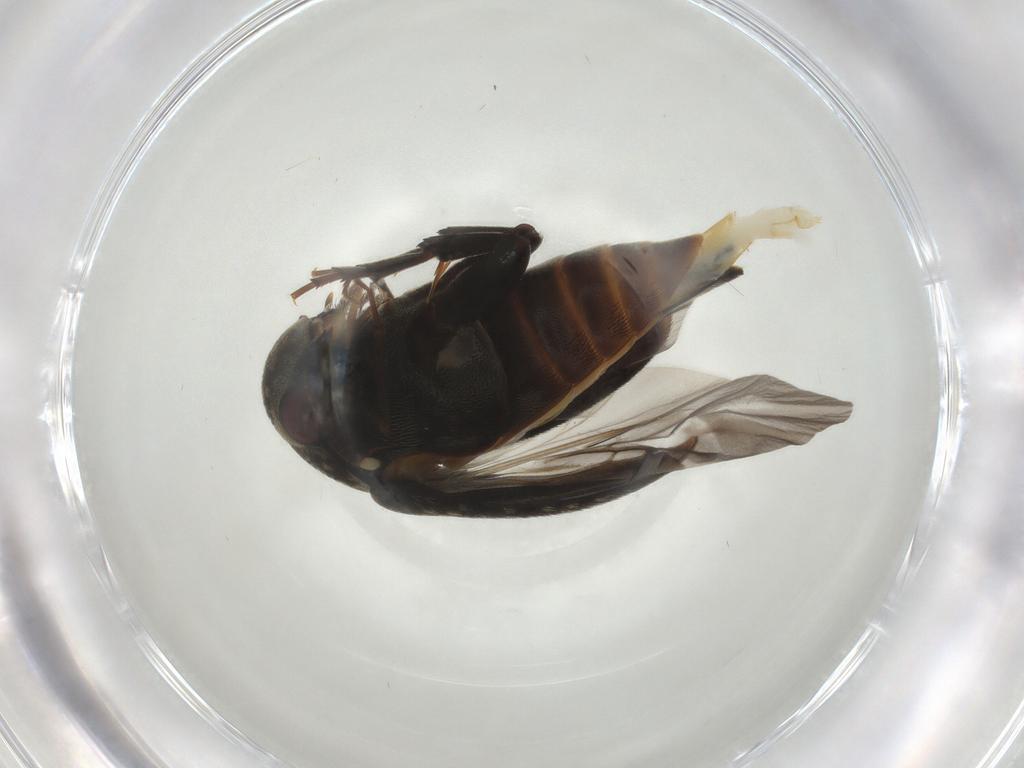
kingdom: Animalia
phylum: Arthropoda
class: Insecta
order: Coleoptera
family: Mordellidae
